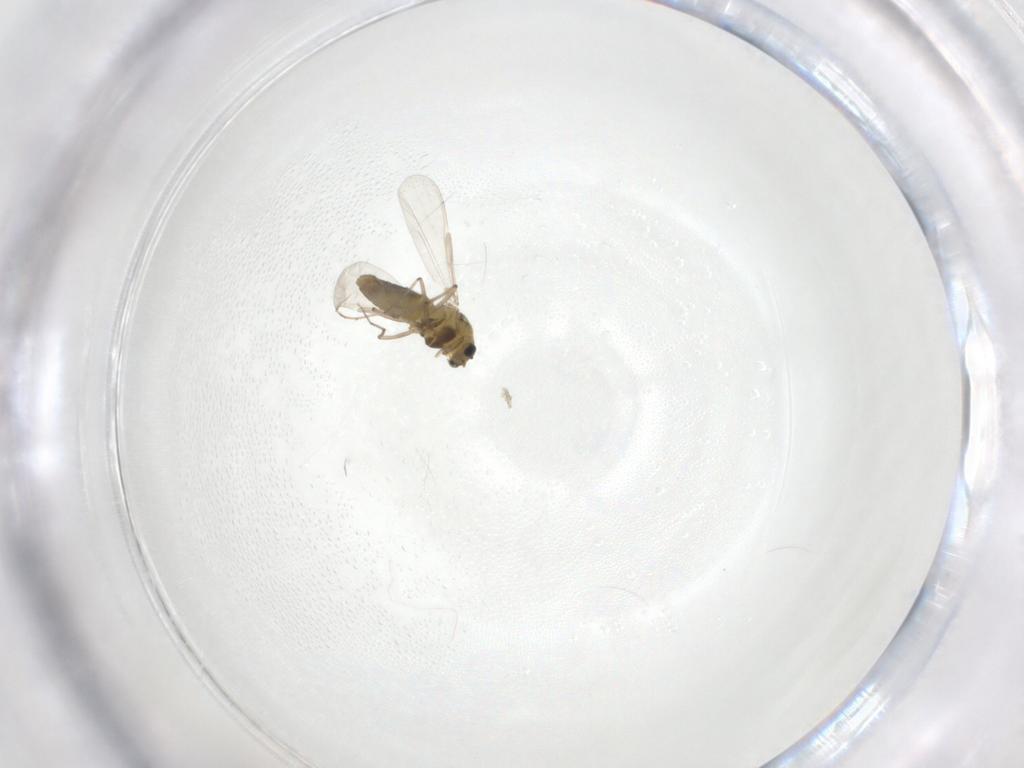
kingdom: Animalia
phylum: Arthropoda
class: Insecta
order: Diptera
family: Chironomidae
